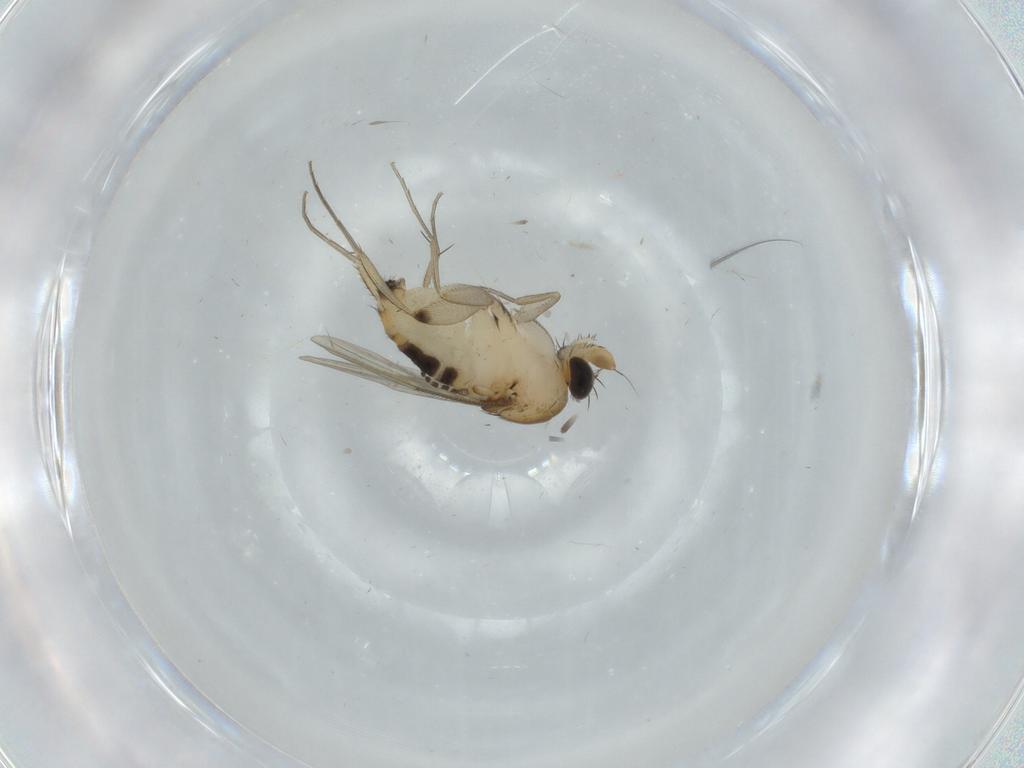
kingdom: Animalia
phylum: Arthropoda
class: Insecta
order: Diptera
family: Phoridae
